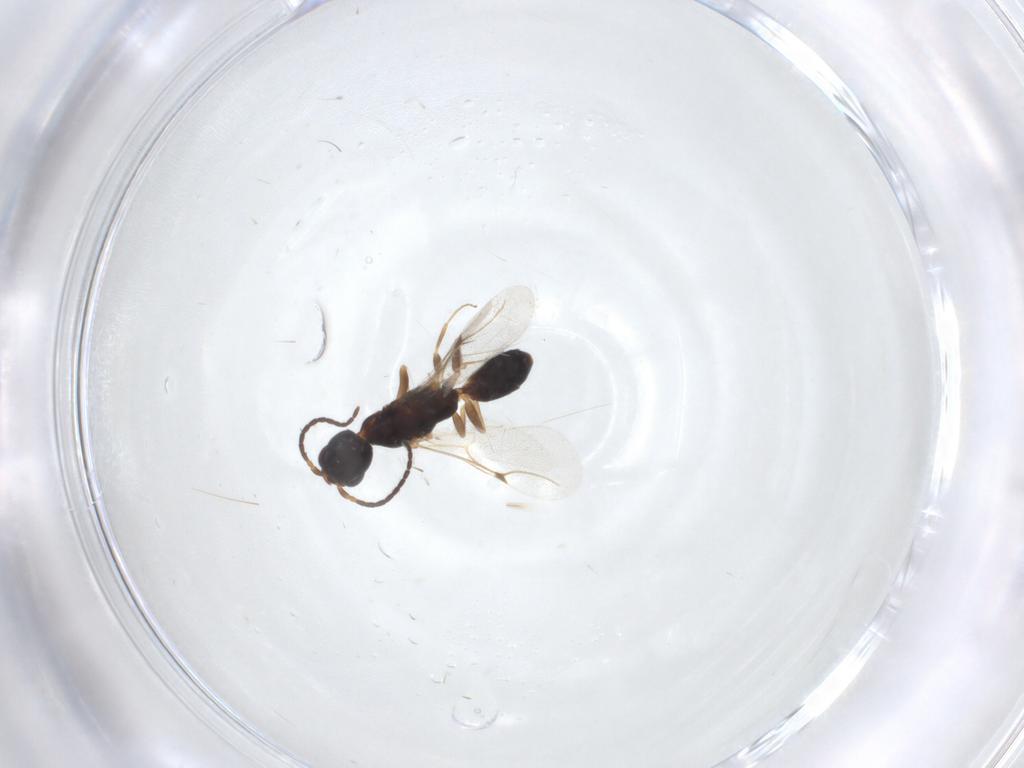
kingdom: Animalia
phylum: Arthropoda
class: Insecta
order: Hymenoptera
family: Bethylidae
